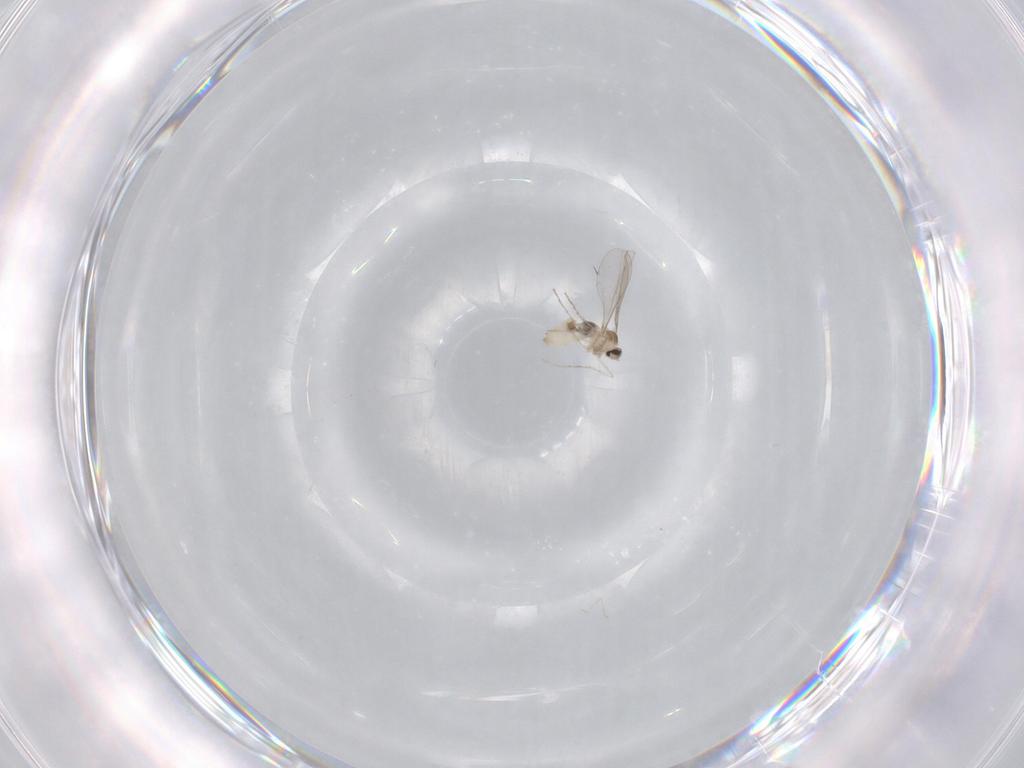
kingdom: Animalia
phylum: Arthropoda
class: Insecta
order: Diptera
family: Cecidomyiidae
